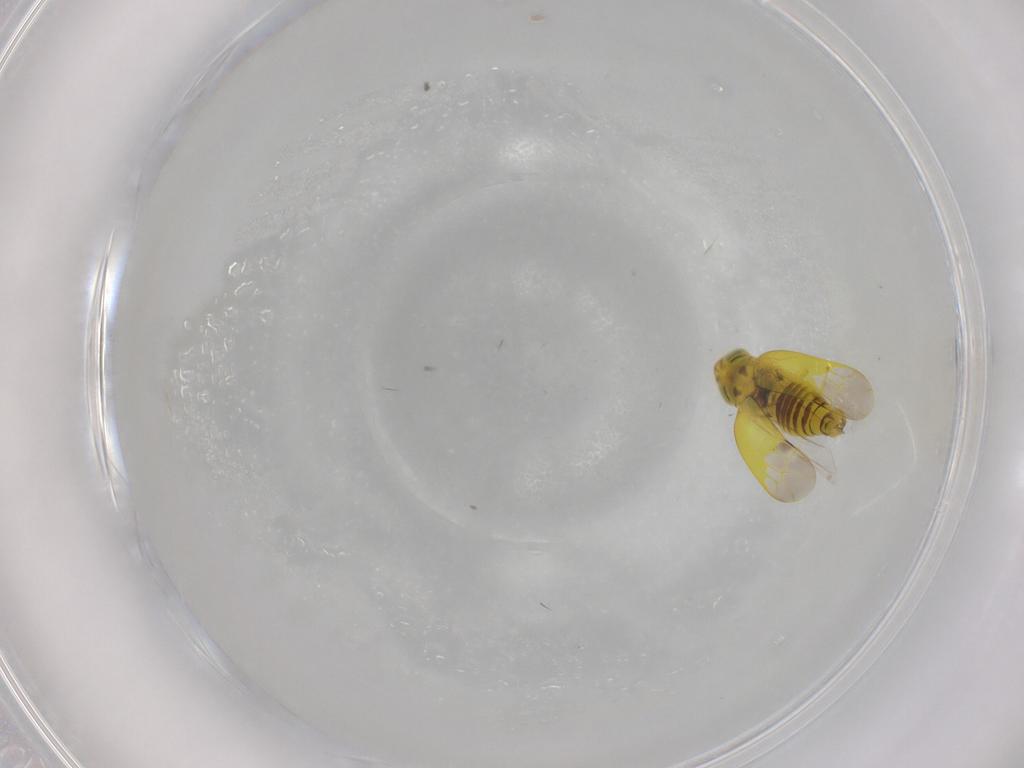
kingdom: Animalia
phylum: Arthropoda
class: Insecta
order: Hemiptera
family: Cicadellidae
